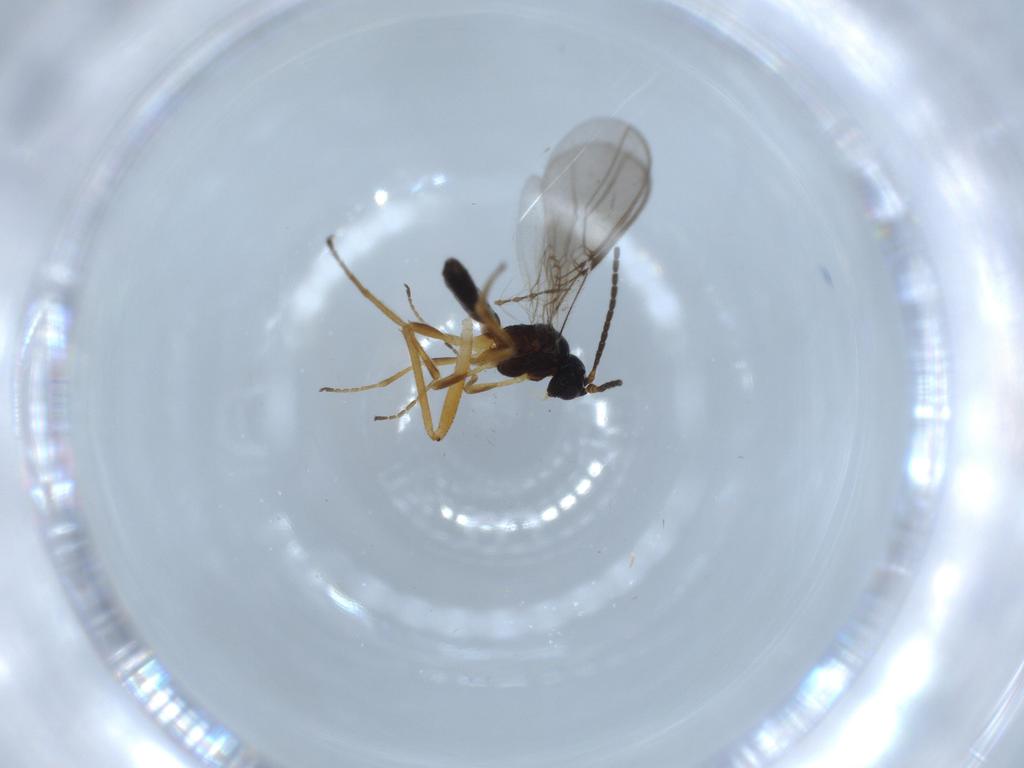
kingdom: Animalia
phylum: Arthropoda
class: Insecta
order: Hymenoptera
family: Braconidae
